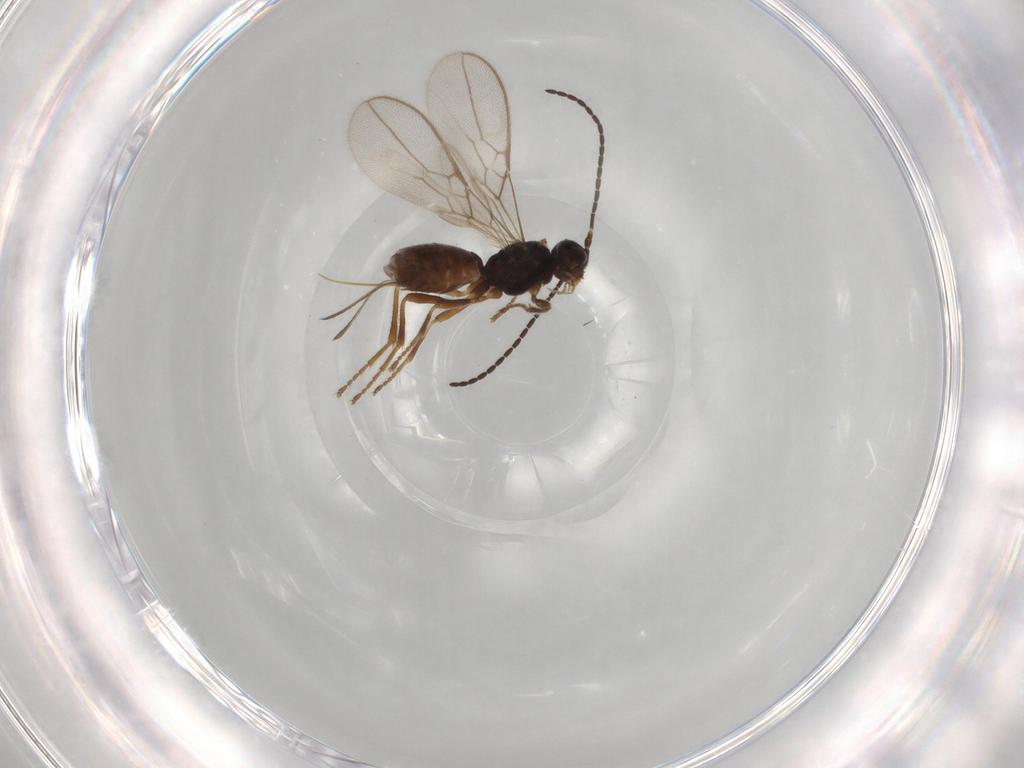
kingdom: Animalia
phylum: Arthropoda
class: Insecta
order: Hymenoptera
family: Braconidae
